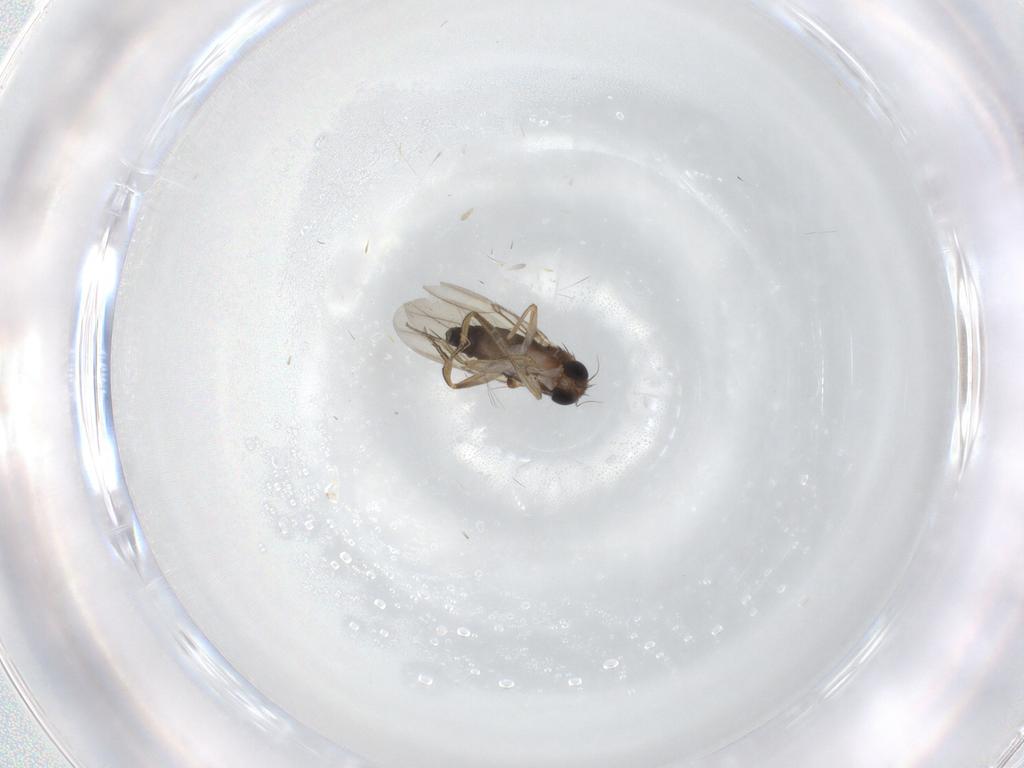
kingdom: Animalia
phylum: Arthropoda
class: Insecta
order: Diptera
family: Phoridae
